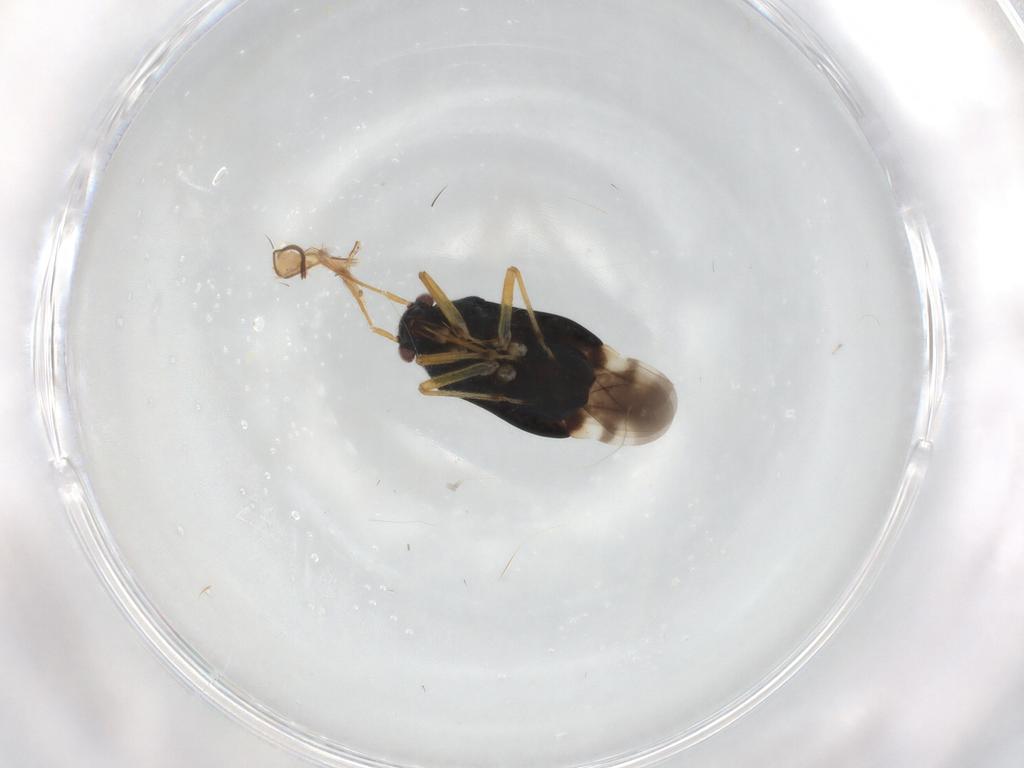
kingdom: Animalia
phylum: Arthropoda
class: Insecta
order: Hemiptera
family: Miridae
